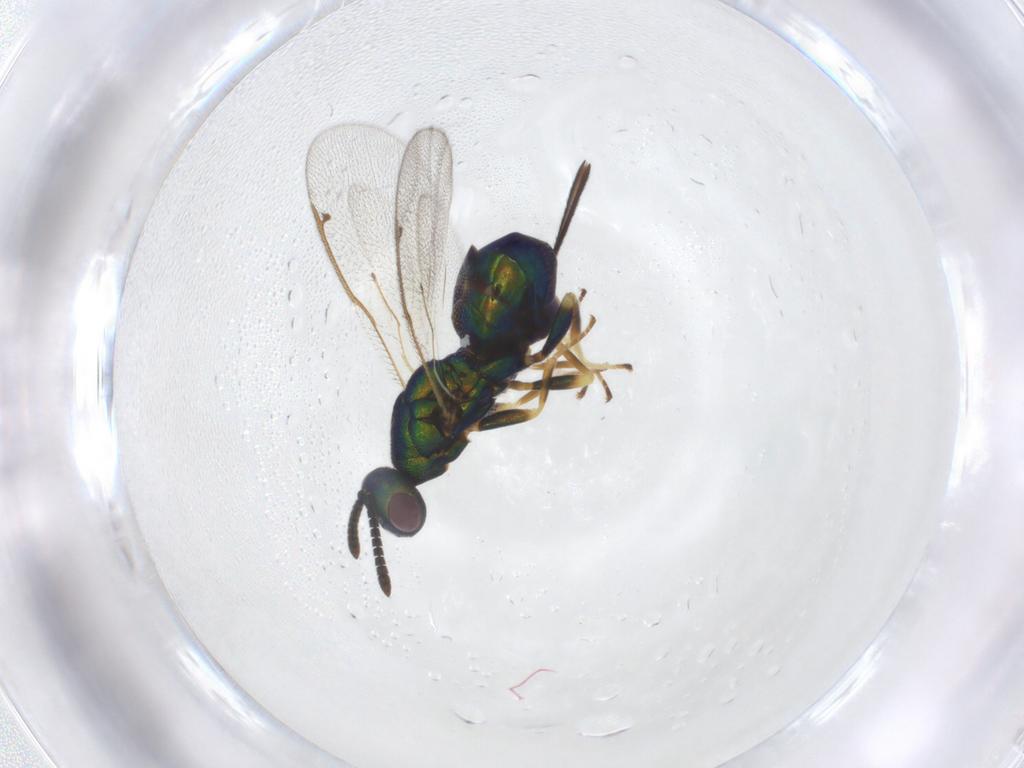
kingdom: Animalia
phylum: Arthropoda
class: Insecta
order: Hymenoptera
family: Torymidae
